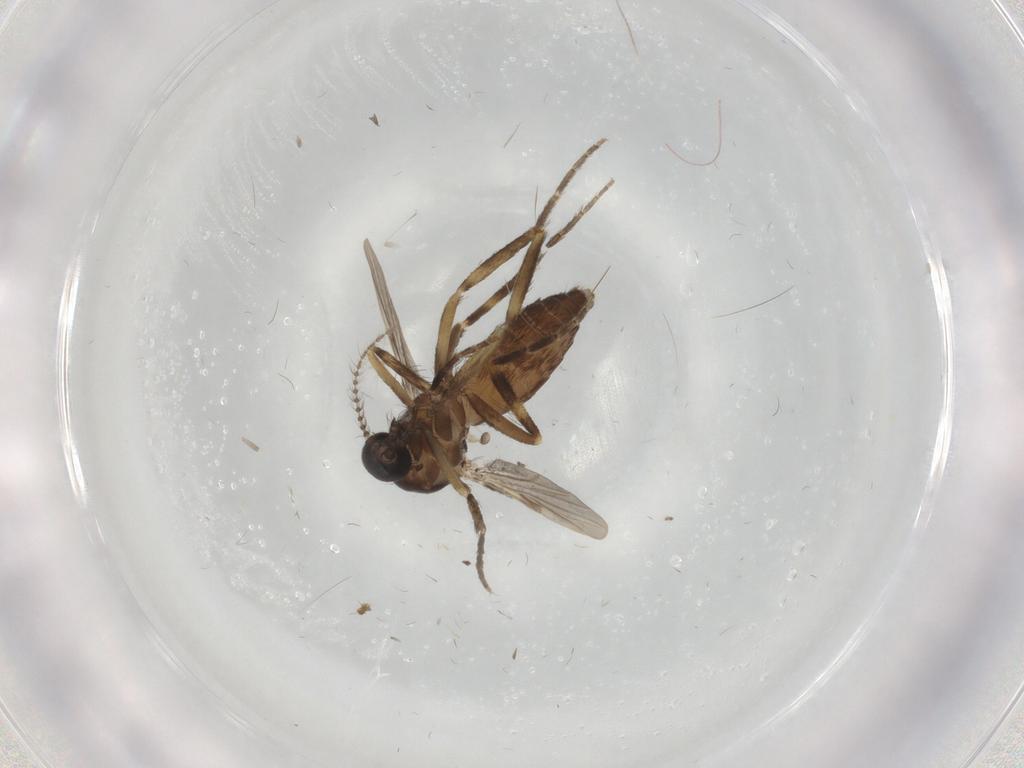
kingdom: Animalia
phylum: Arthropoda
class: Insecta
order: Diptera
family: Ceratopogonidae
